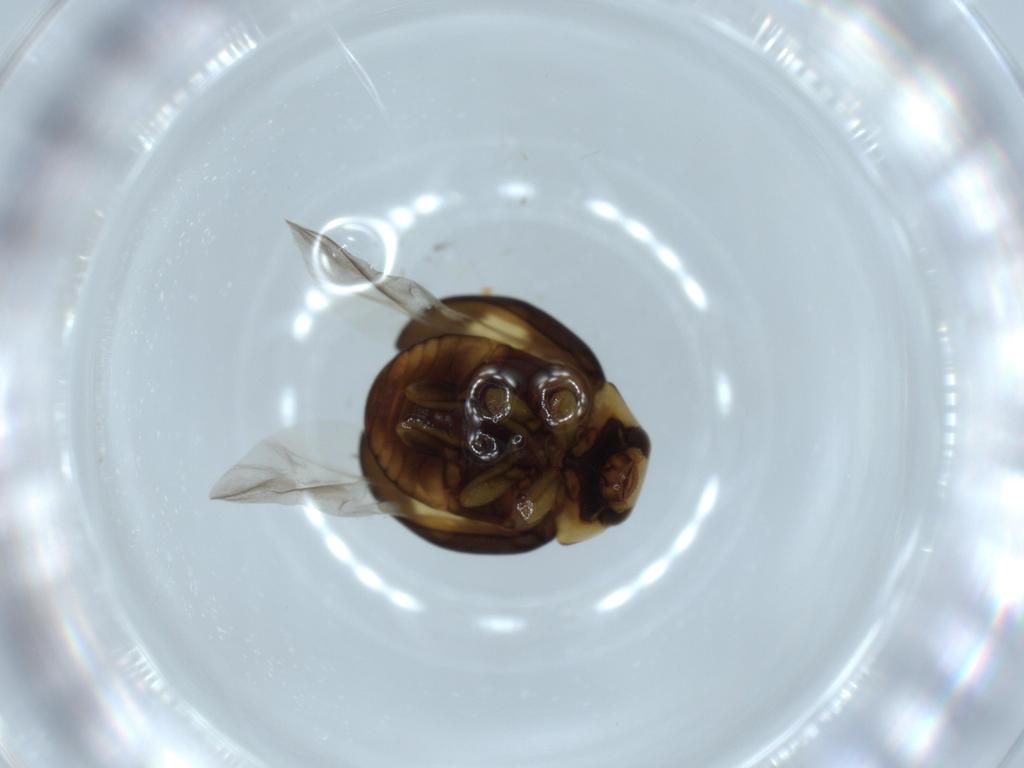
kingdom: Animalia
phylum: Arthropoda
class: Insecta
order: Coleoptera
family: Coccinellidae
